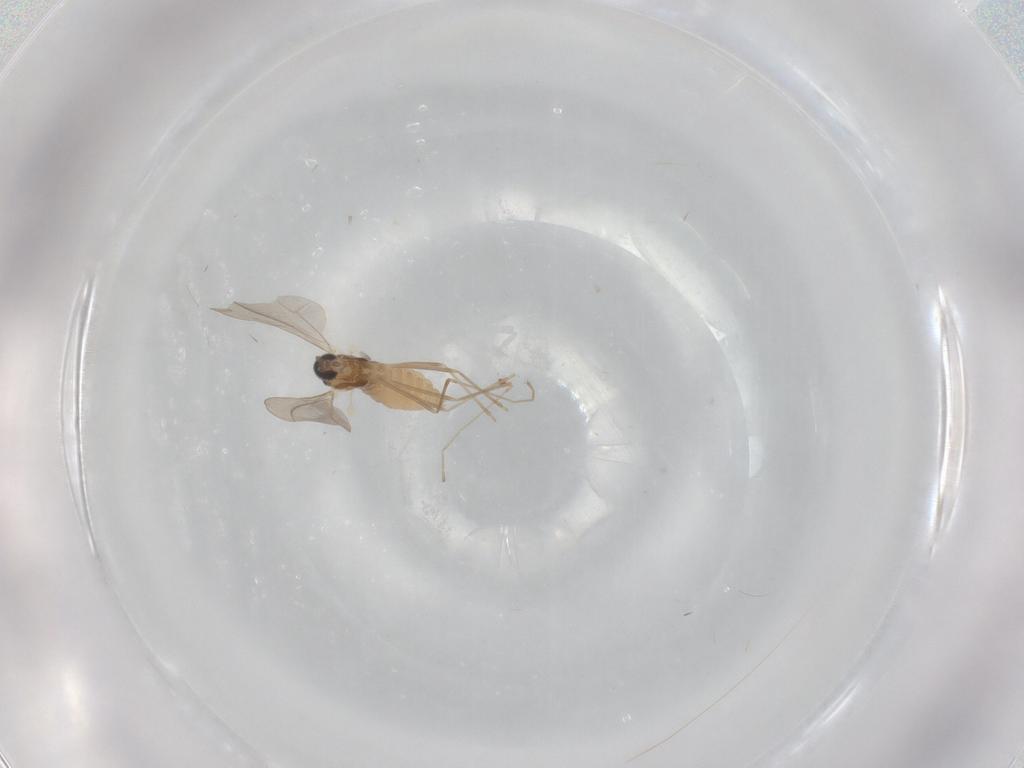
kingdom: Animalia
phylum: Arthropoda
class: Insecta
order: Diptera
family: Cecidomyiidae
